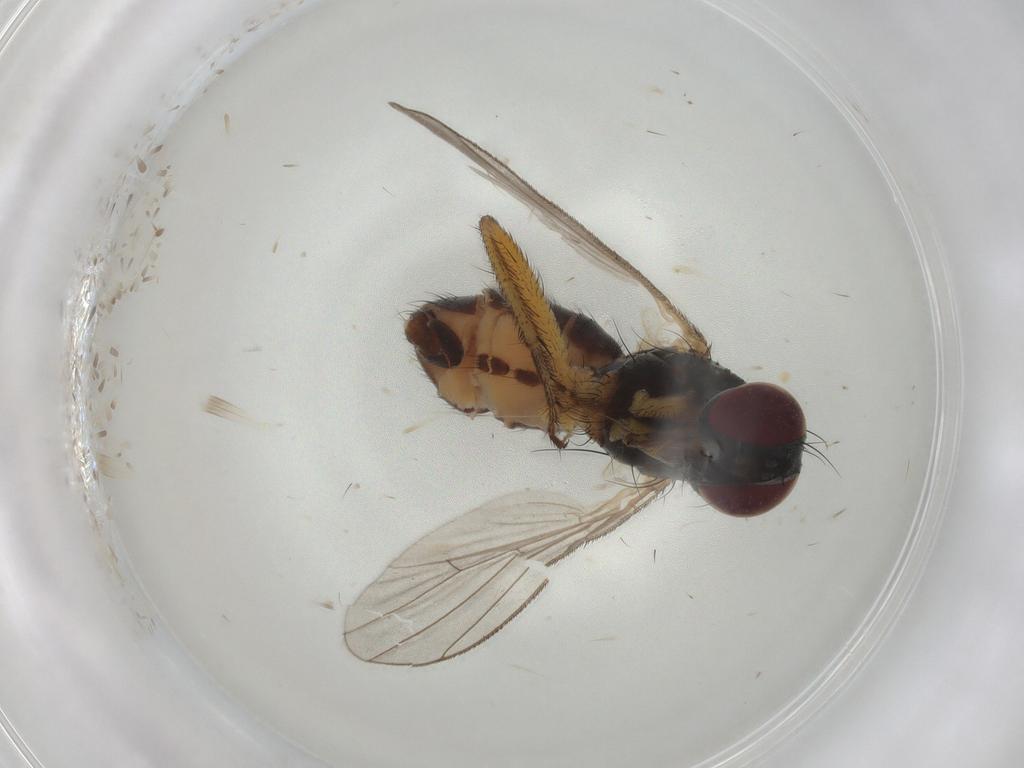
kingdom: Animalia
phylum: Arthropoda
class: Insecta
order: Diptera
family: Muscidae
